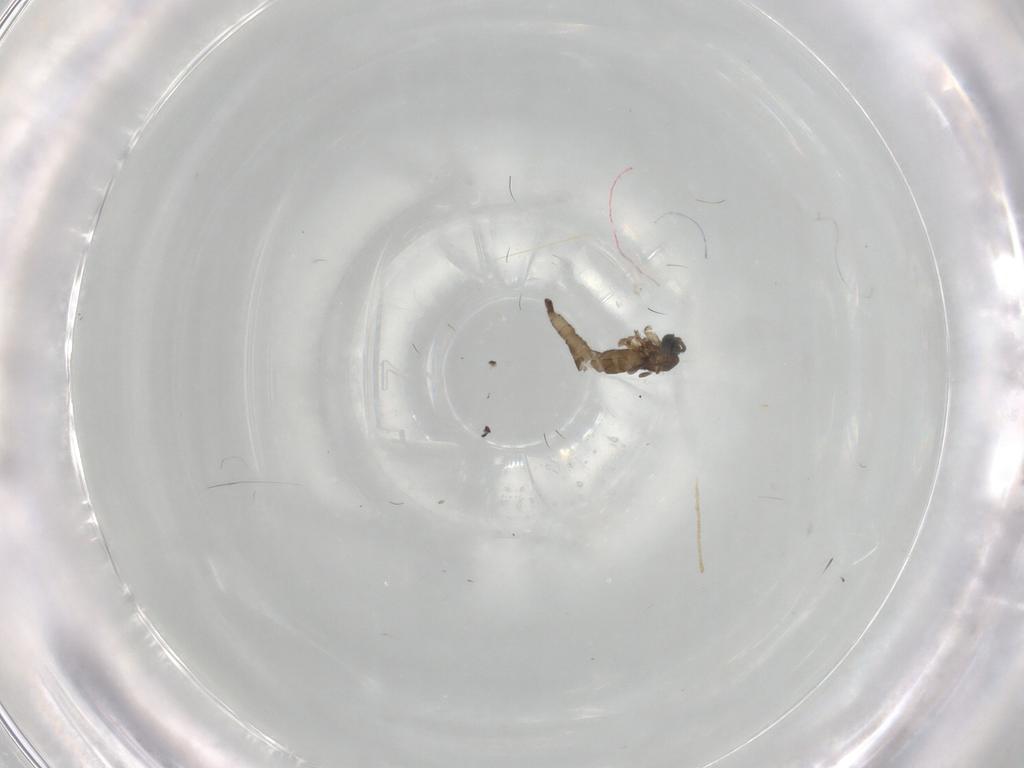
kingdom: Animalia
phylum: Arthropoda
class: Insecta
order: Diptera
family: Sciaridae
